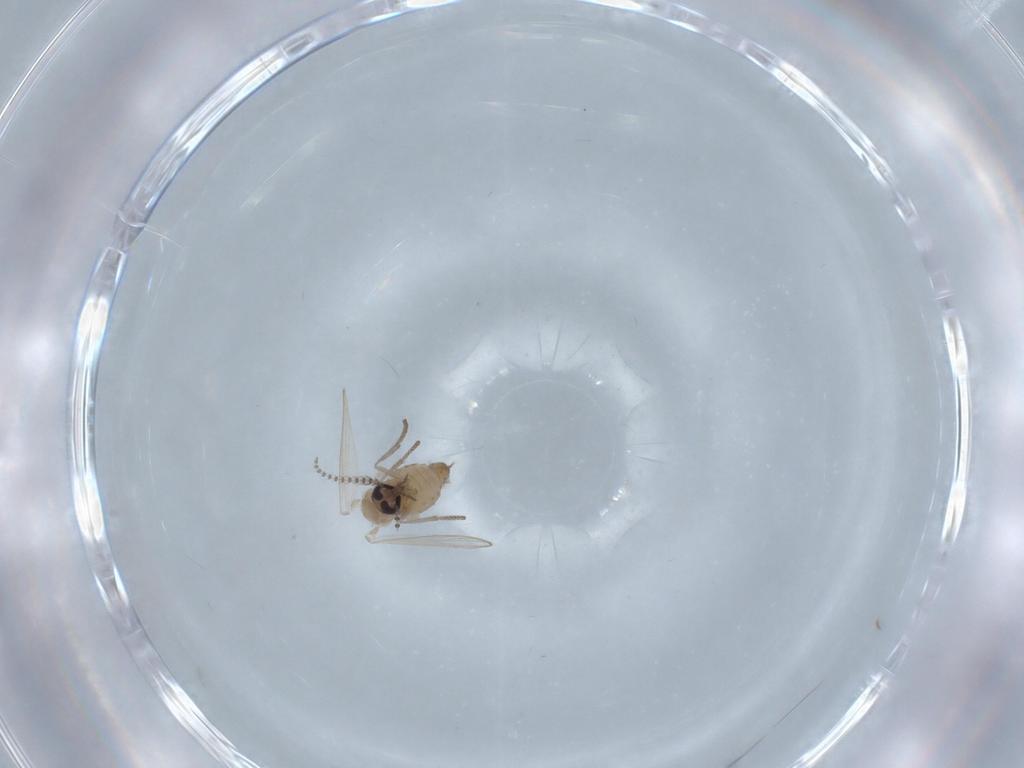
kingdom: Animalia
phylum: Arthropoda
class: Insecta
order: Diptera
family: Psychodidae
